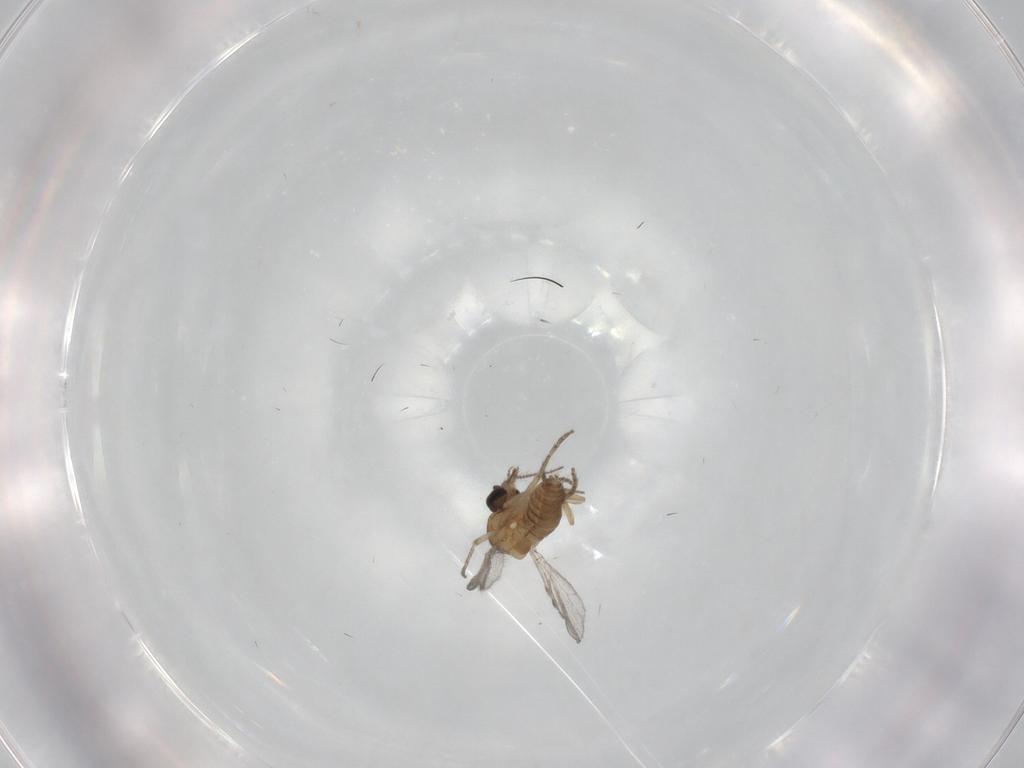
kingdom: Animalia
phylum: Arthropoda
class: Insecta
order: Diptera
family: Ceratopogonidae
